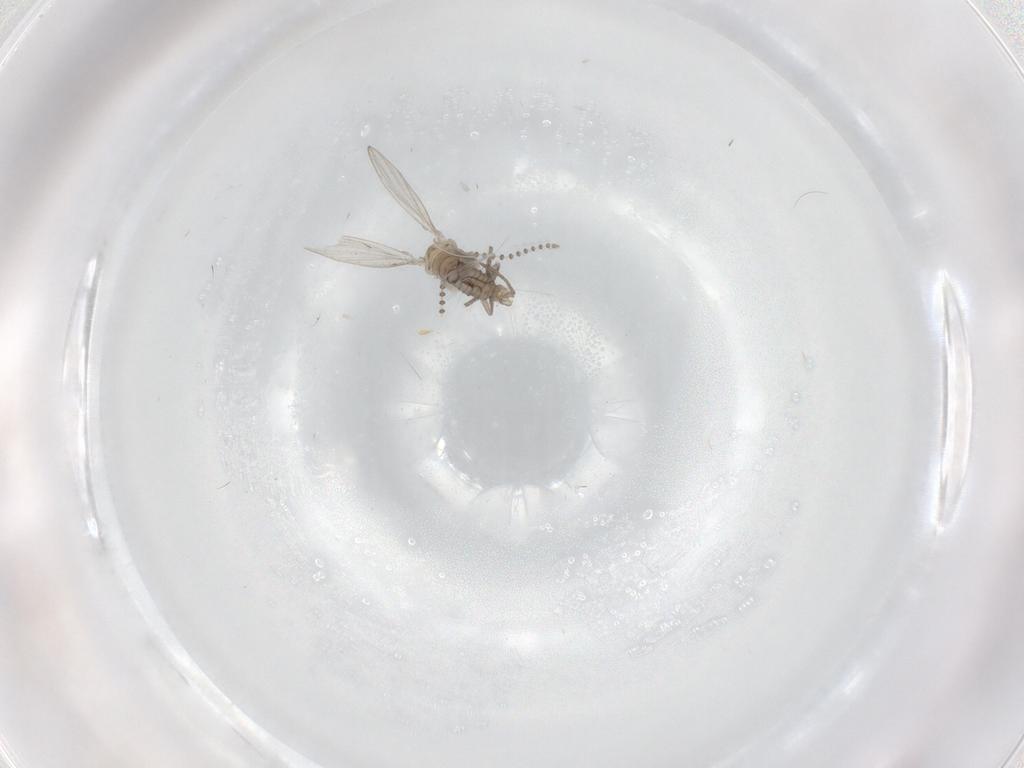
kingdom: Animalia
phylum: Arthropoda
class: Insecta
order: Diptera
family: Psychodidae
